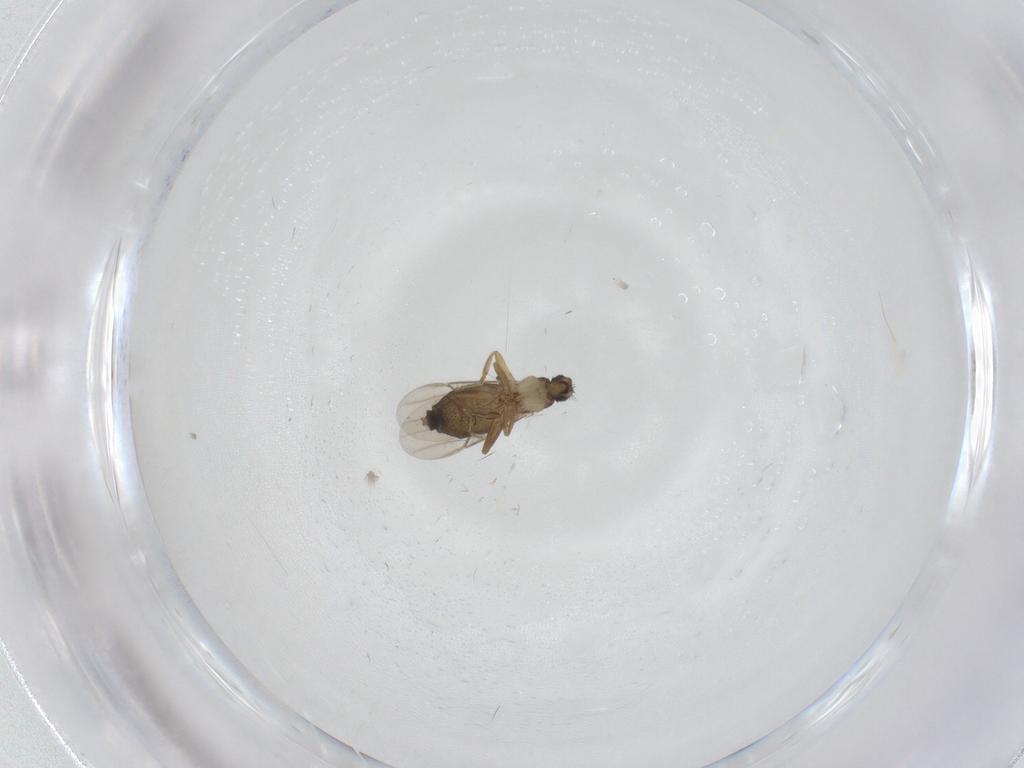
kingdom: Animalia
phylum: Arthropoda
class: Insecta
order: Diptera
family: Phoridae
